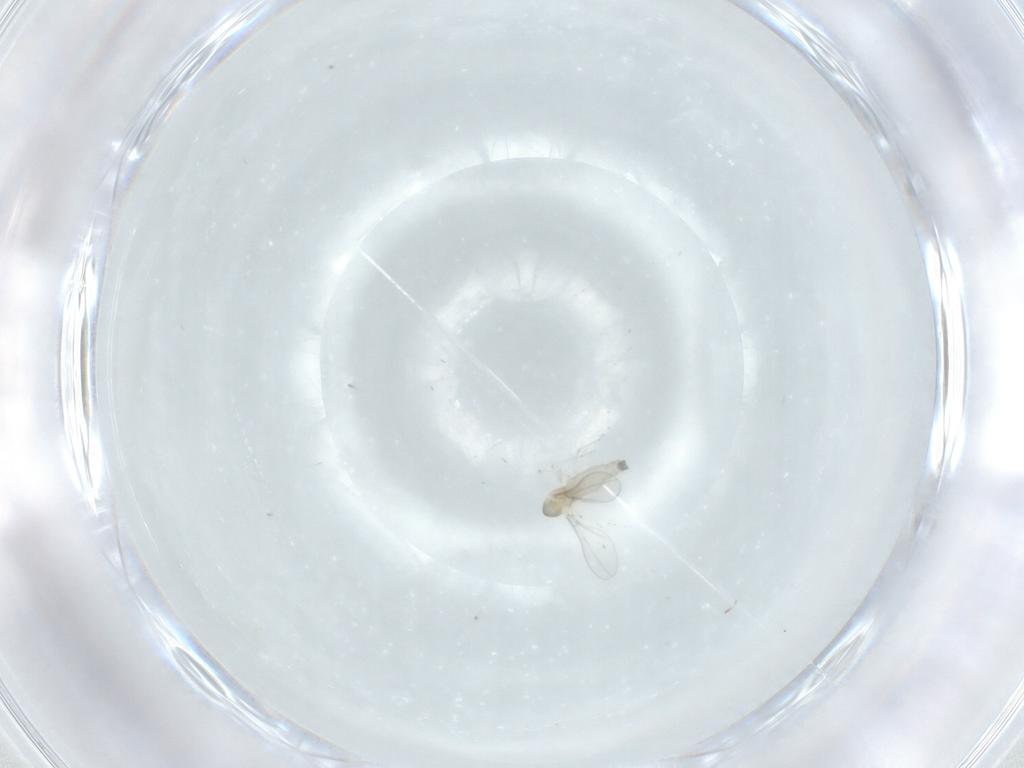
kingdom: Animalia
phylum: Arthropoda
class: Insecta
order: Diptera
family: Cecidomyiidae
